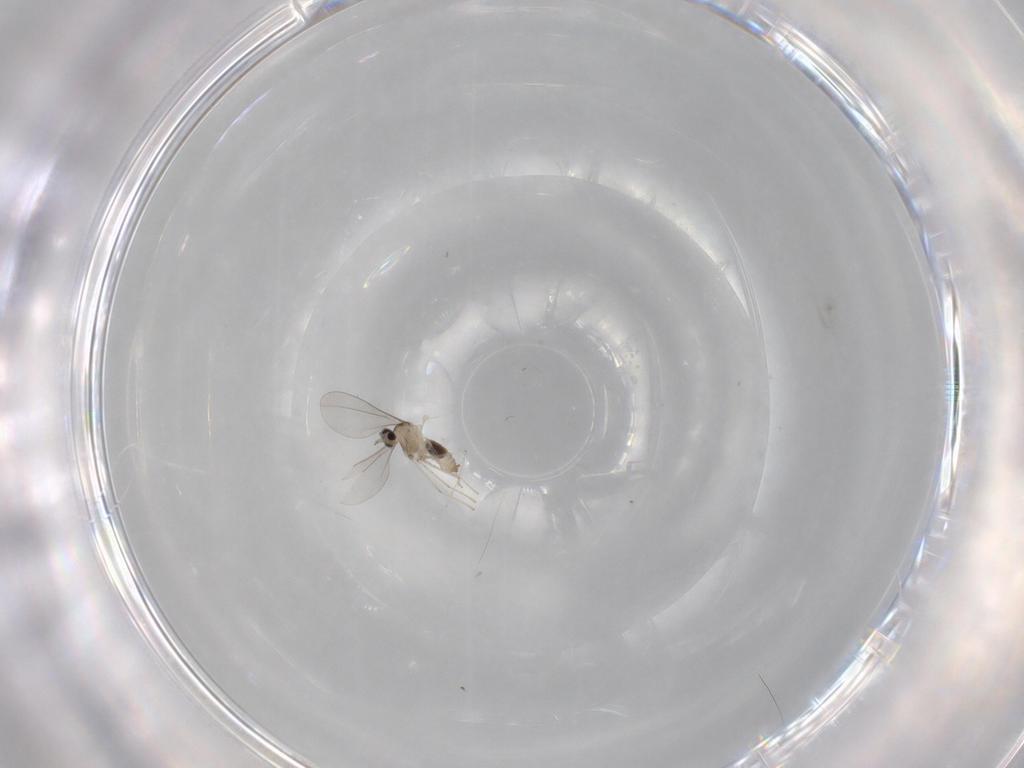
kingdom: Animalia
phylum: Arthropoda
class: Insecta
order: Diptera
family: Cecidomyiidae
